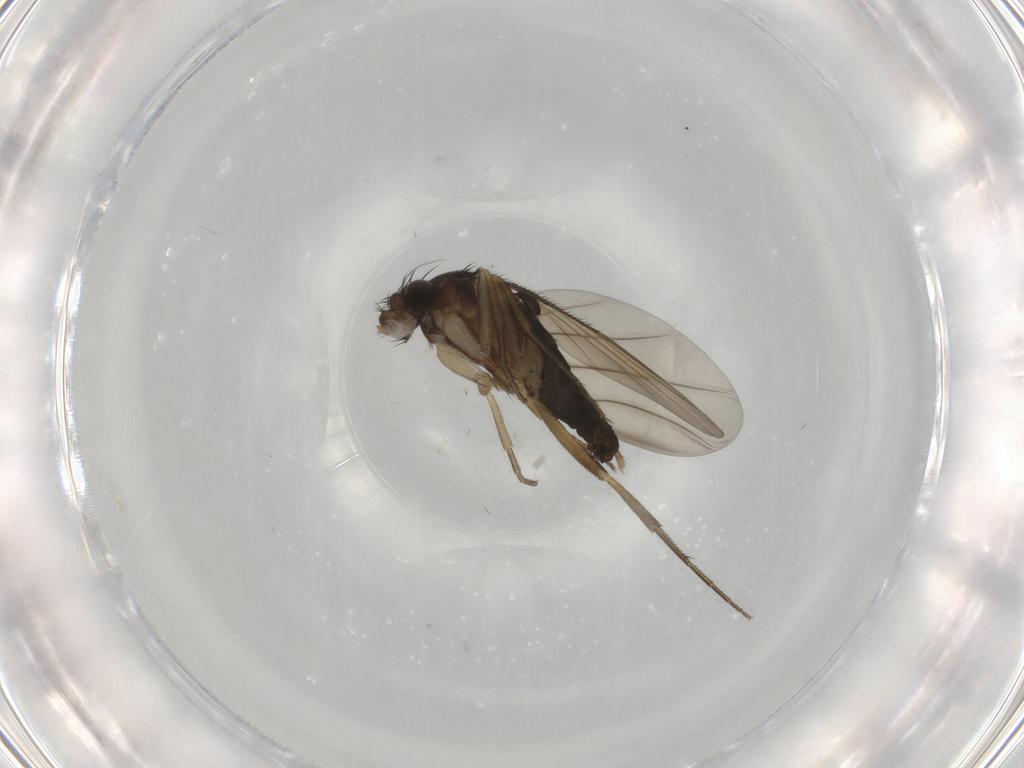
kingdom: Animalia
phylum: Arthropoda
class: Insecta
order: Diptera
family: Phoridae
